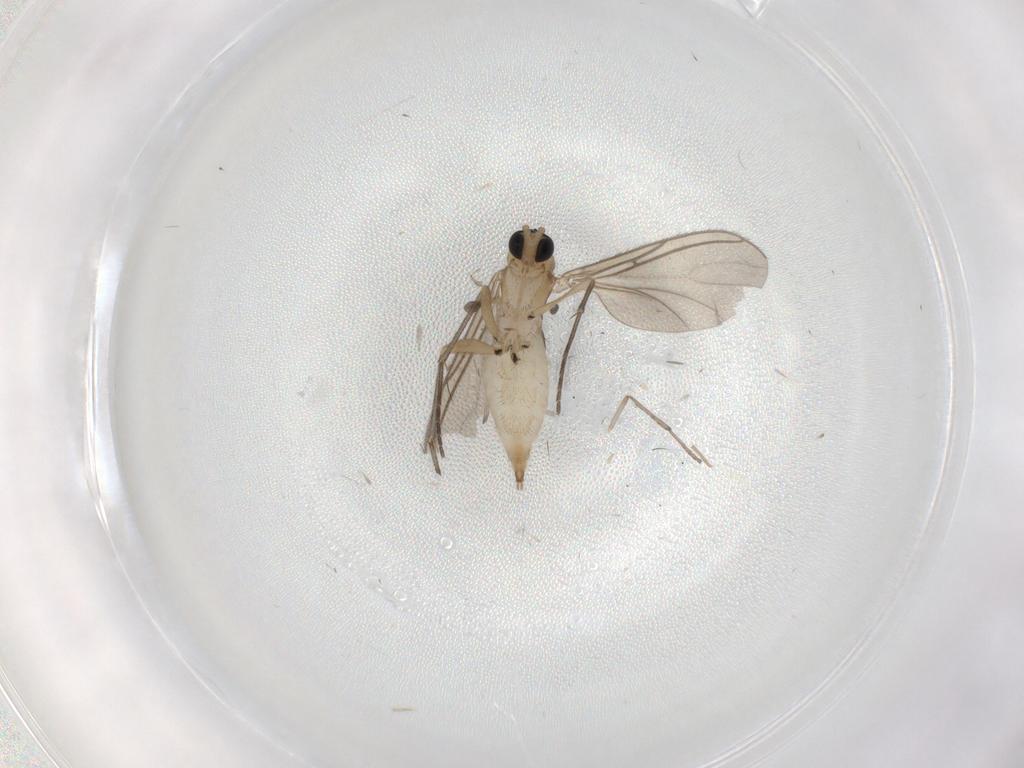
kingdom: Animalia
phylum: Arthropoda
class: Insecta
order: Diptera
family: Sciaridae
